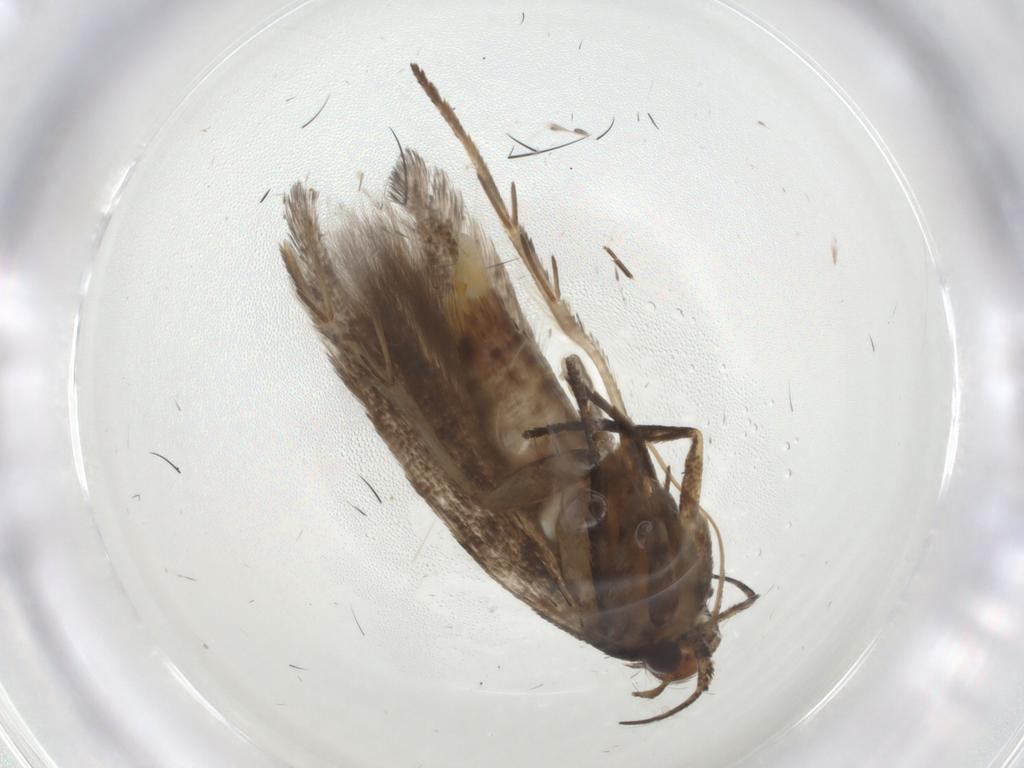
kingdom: Animalia
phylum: Arthropoda
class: Insecta
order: Lepidoptera
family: Gelechiidae
